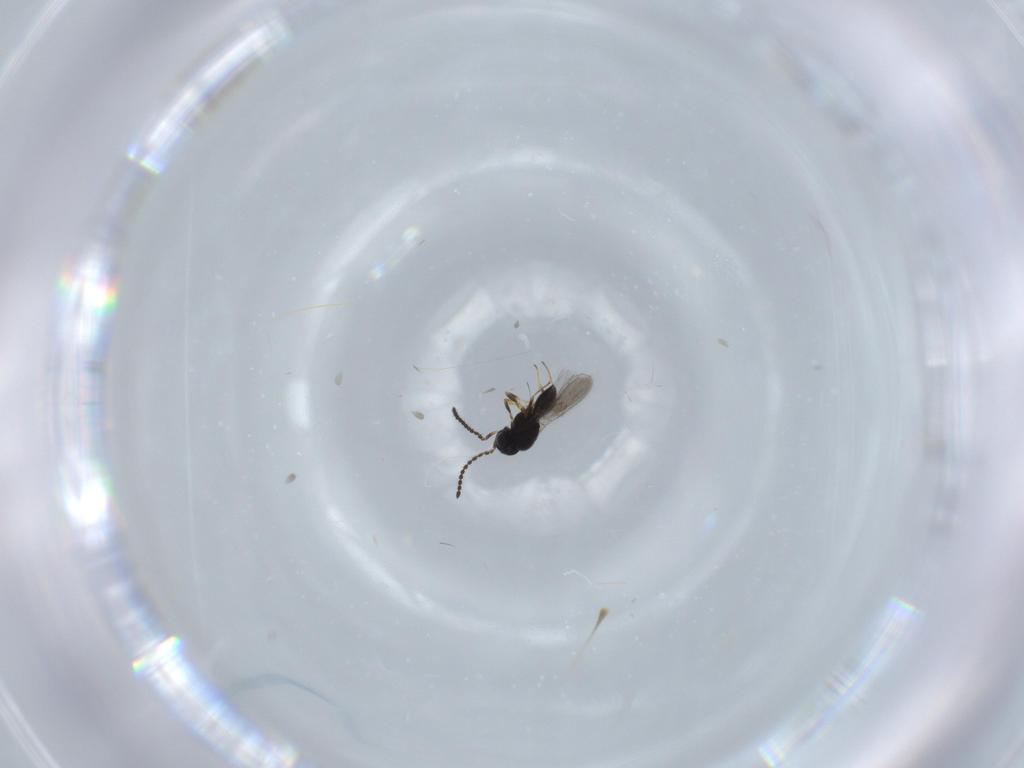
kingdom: Animalia
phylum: Arthropoda
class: Insecta
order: Hymenoptera
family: Scelionidae
